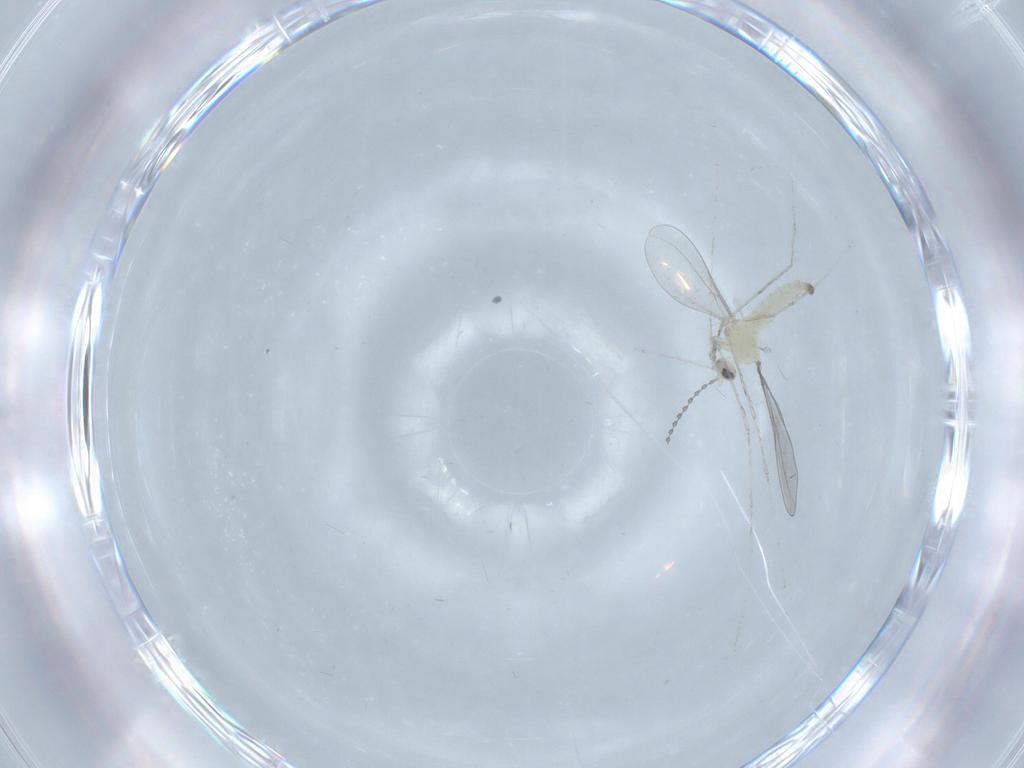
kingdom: Animalia
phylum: Arthropoda
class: Insecta
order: Diptera
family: Cecidomyiidae
